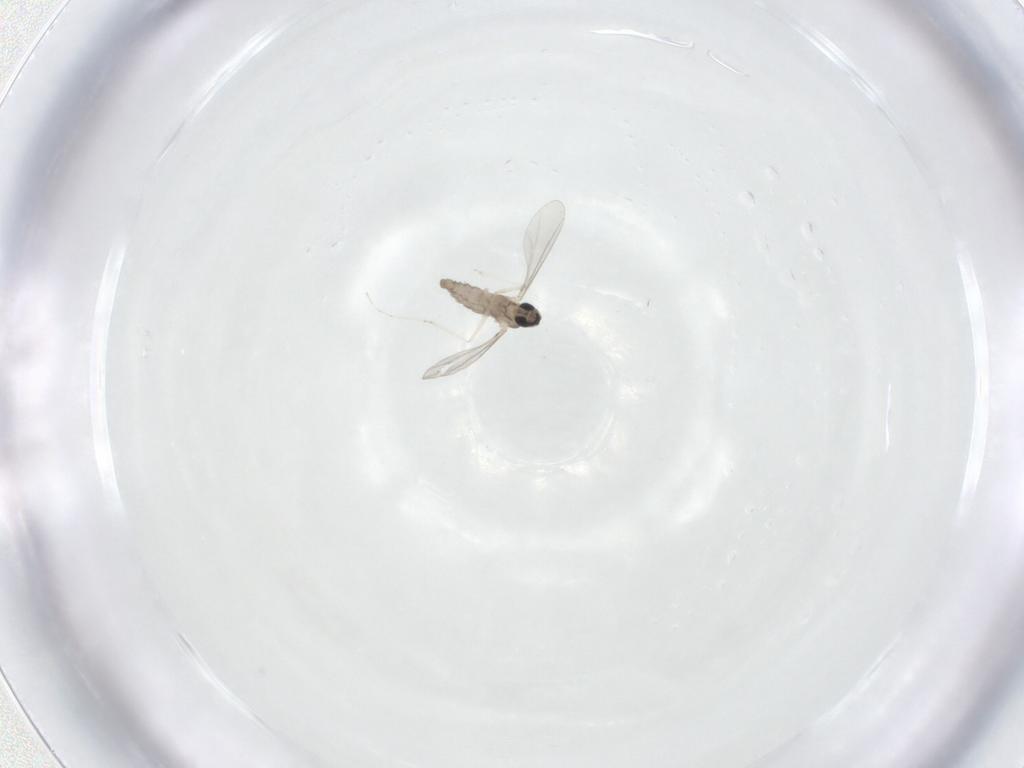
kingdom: Animalia
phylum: Arthropoda
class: Insecta
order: Diptera
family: Cecidomyiidae
